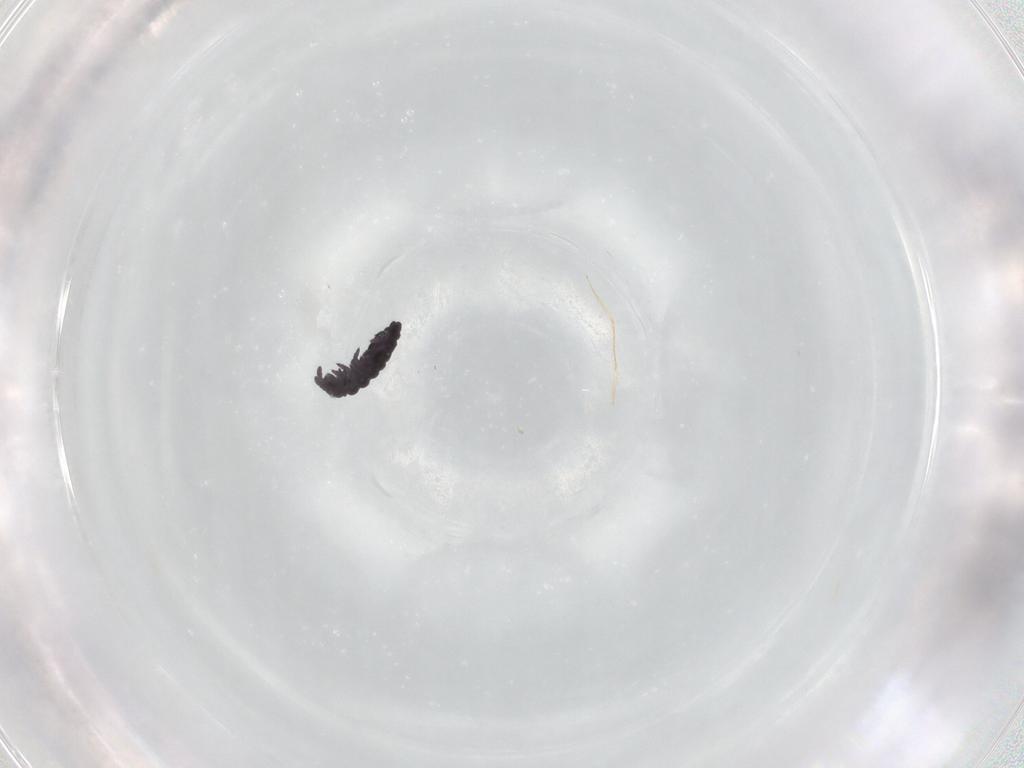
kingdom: Animalia
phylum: Arthropoda
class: Collembola
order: Poduromorpha
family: Hypogastruridae
